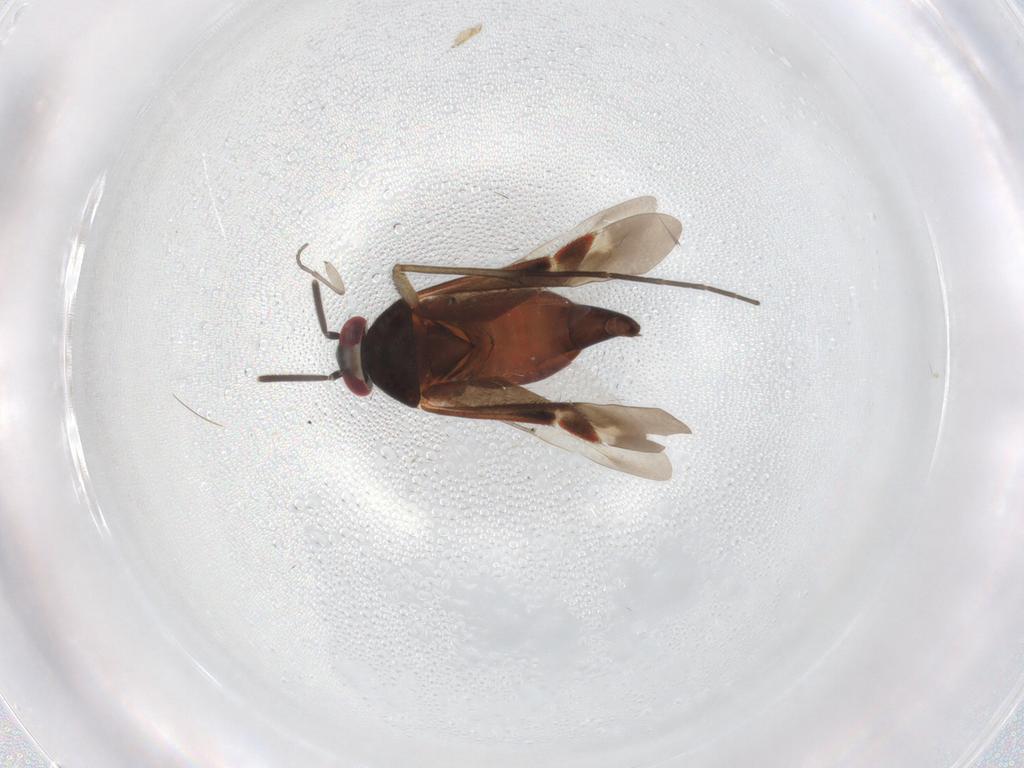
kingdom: Animalia
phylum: Arthropoda
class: Insecta
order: Hemiptera
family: Miridae
